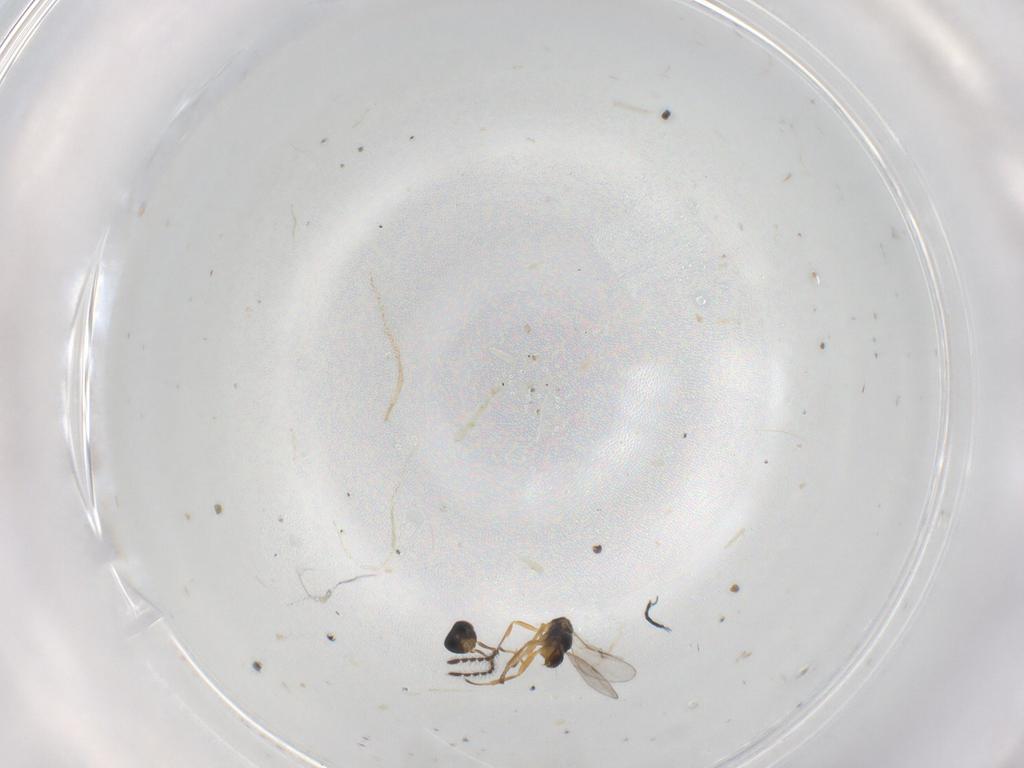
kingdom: Animalia
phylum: Arthropoda
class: Insecta
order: Hymenoptera
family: Encyrtidae
